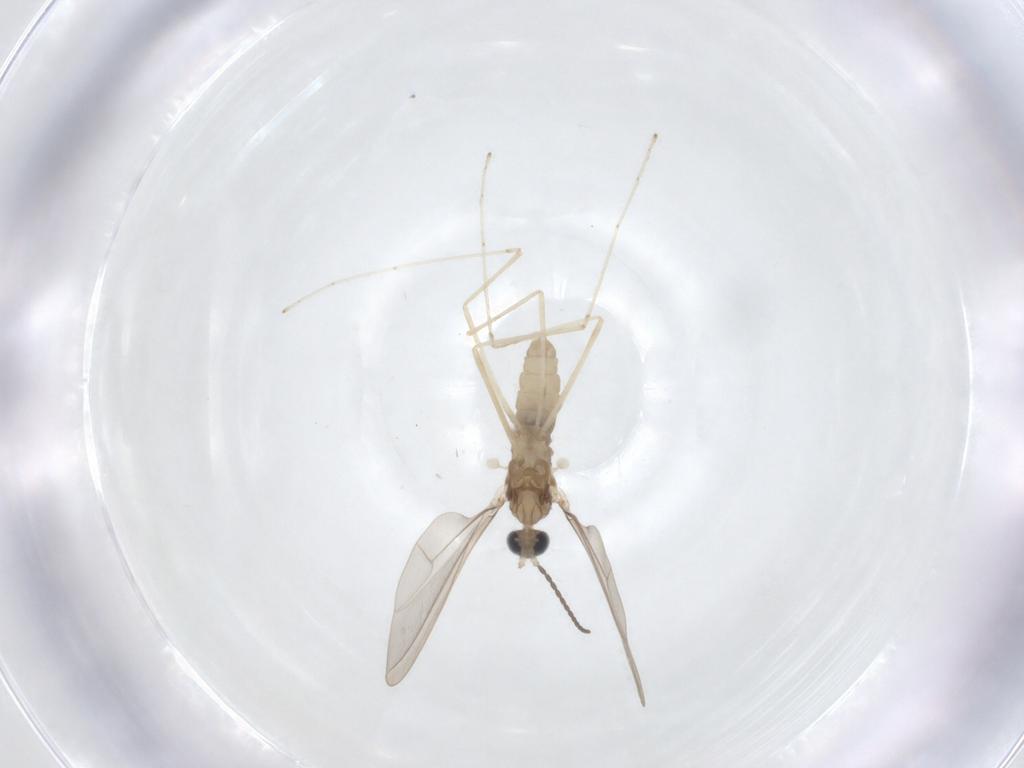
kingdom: Animalia
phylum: Arthropoda
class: Insecta
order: Diptera
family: Cecidomyiidae
